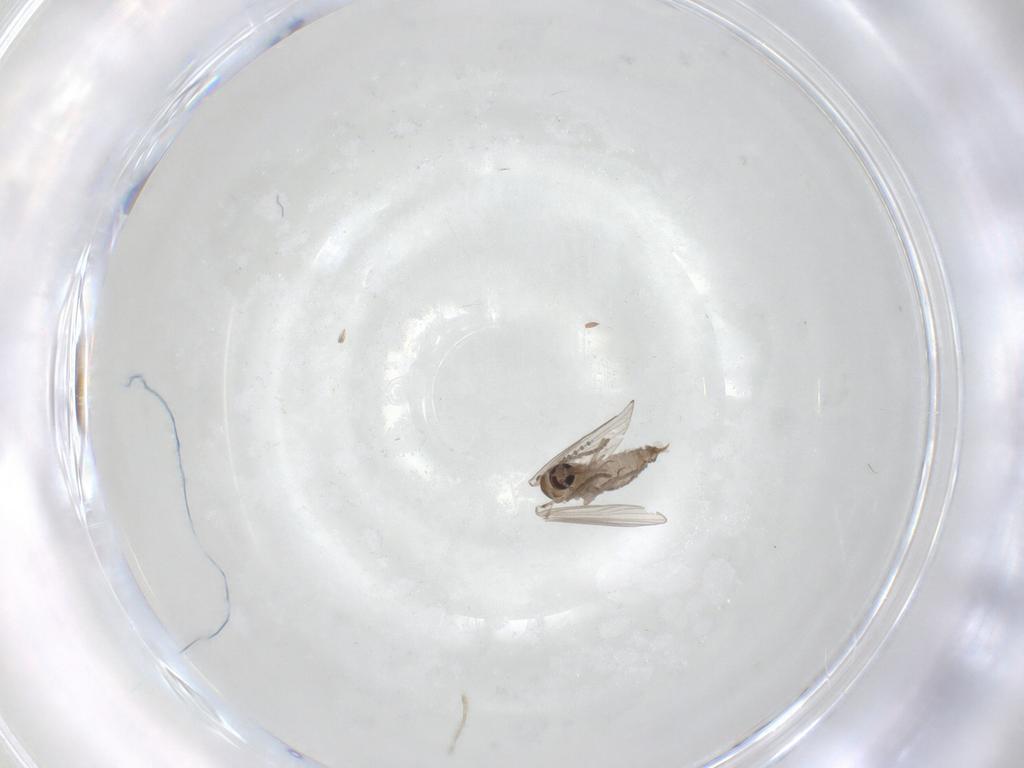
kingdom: Animalia
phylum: Arthropoda
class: Insecta
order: Diptera
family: Psychodidae
